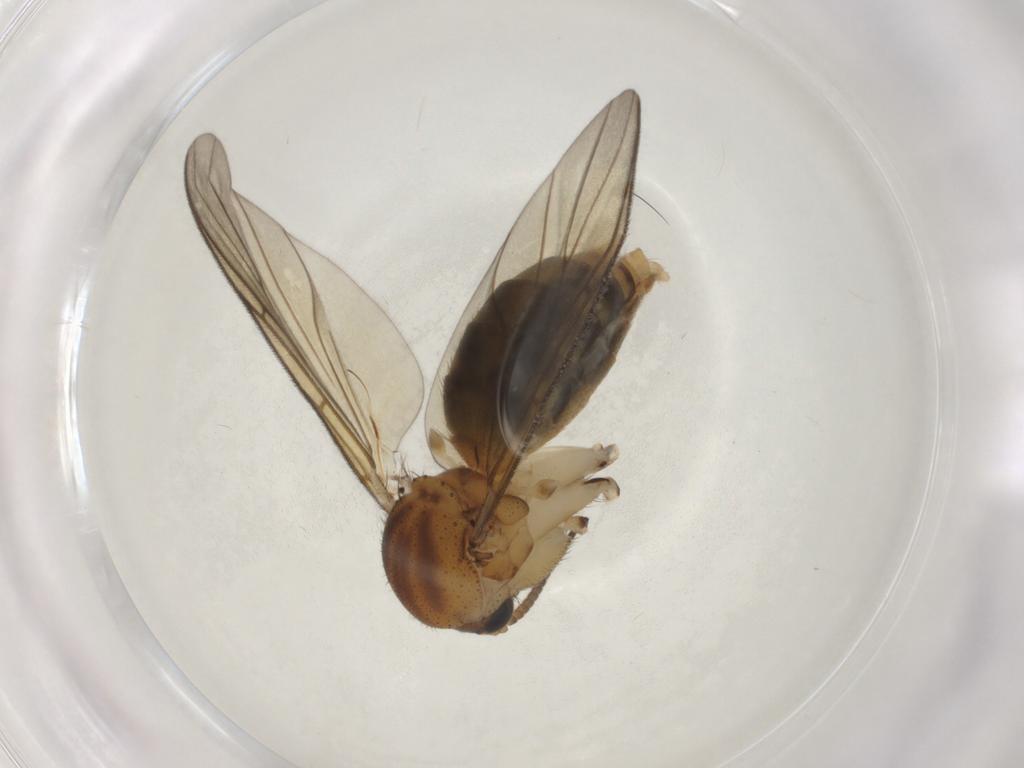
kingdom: Animalia
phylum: Arthropoda
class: Insecta
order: Diptera
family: Mycetophilidae
